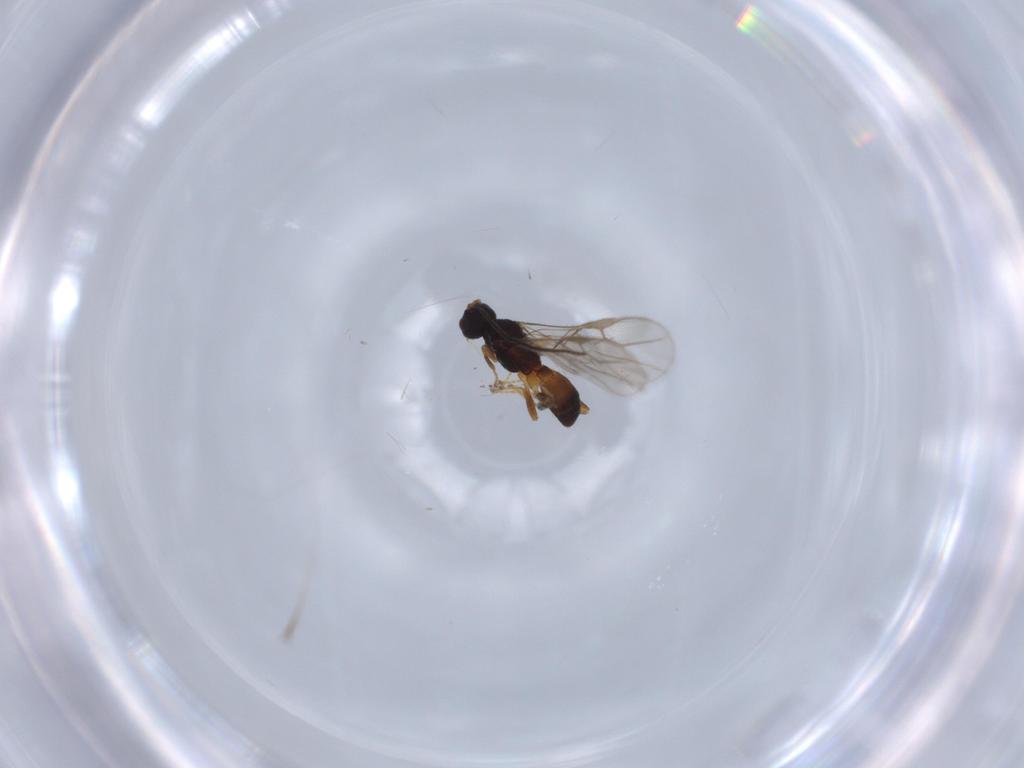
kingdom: Animalia
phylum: Arthropoda
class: Insecta
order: Hymenoptera
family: Braconidae
